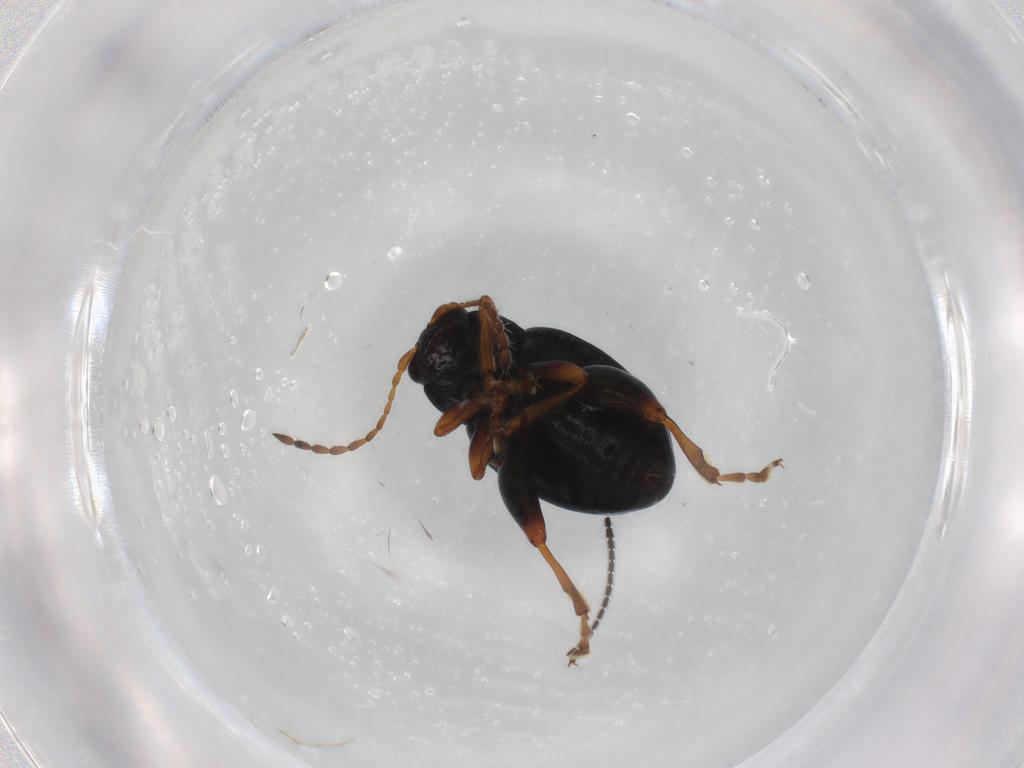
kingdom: Animalia
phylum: Arthropoda
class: Insecta
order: Coleoptera
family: Chrysomelidae
